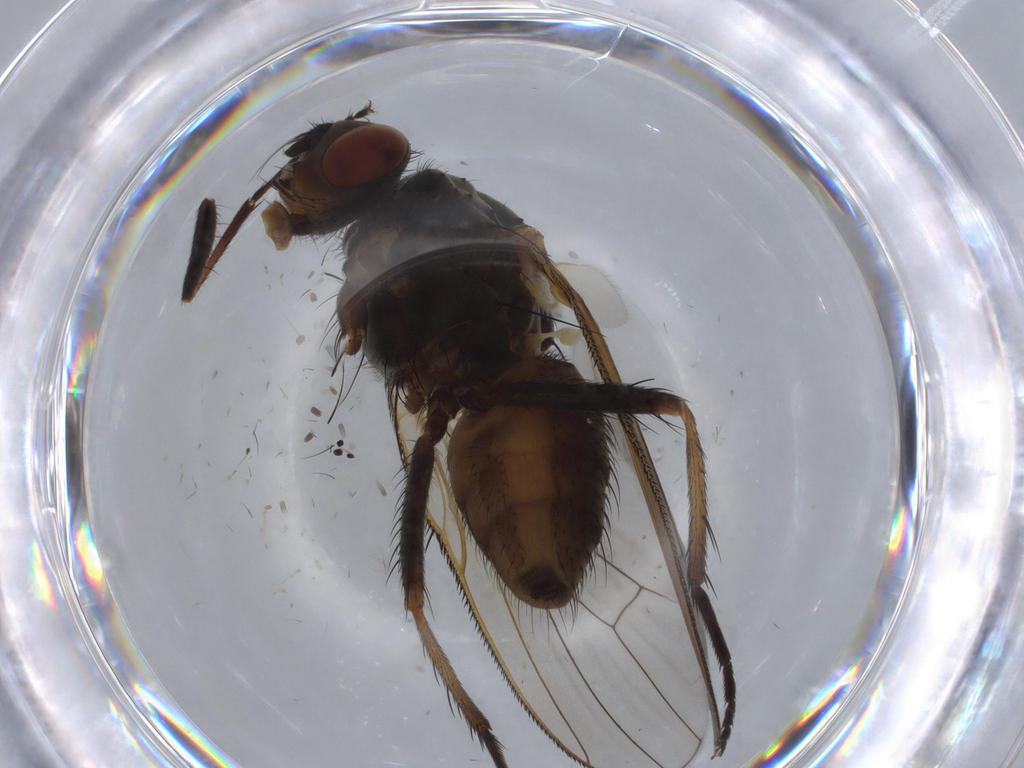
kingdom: Animalia
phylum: Arthropoda
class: Insecta
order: Diptera
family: Anthomyiidae
